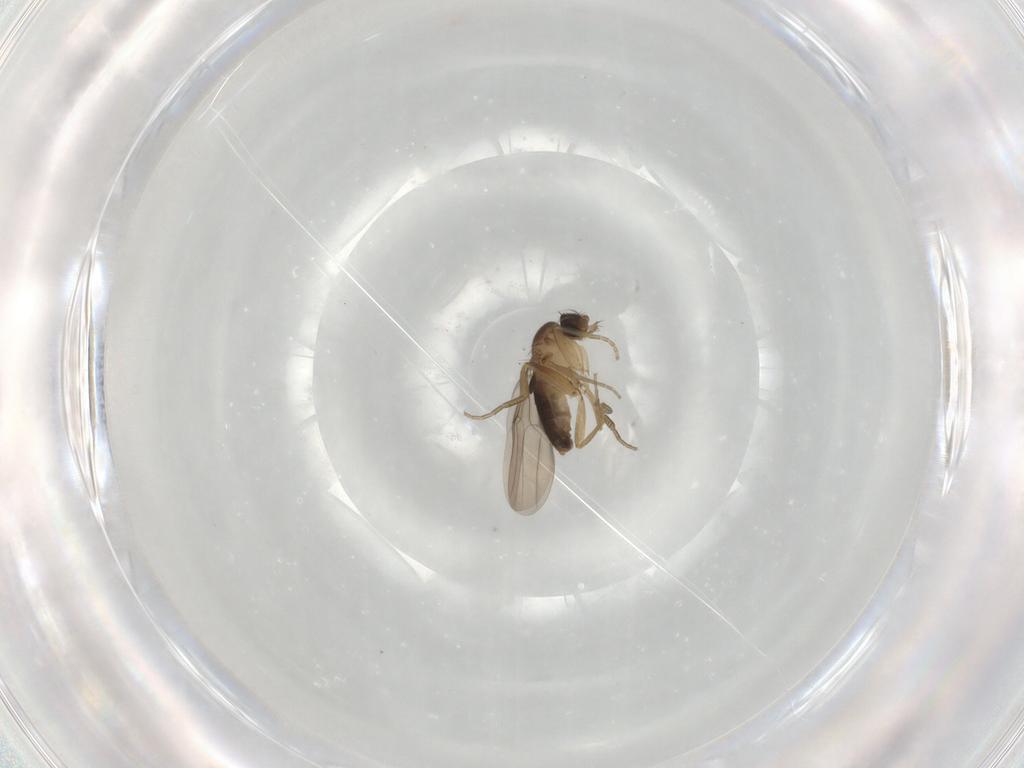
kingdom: Animalia
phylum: Arthropoda
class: Insecta
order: Diptera
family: Phoridae
